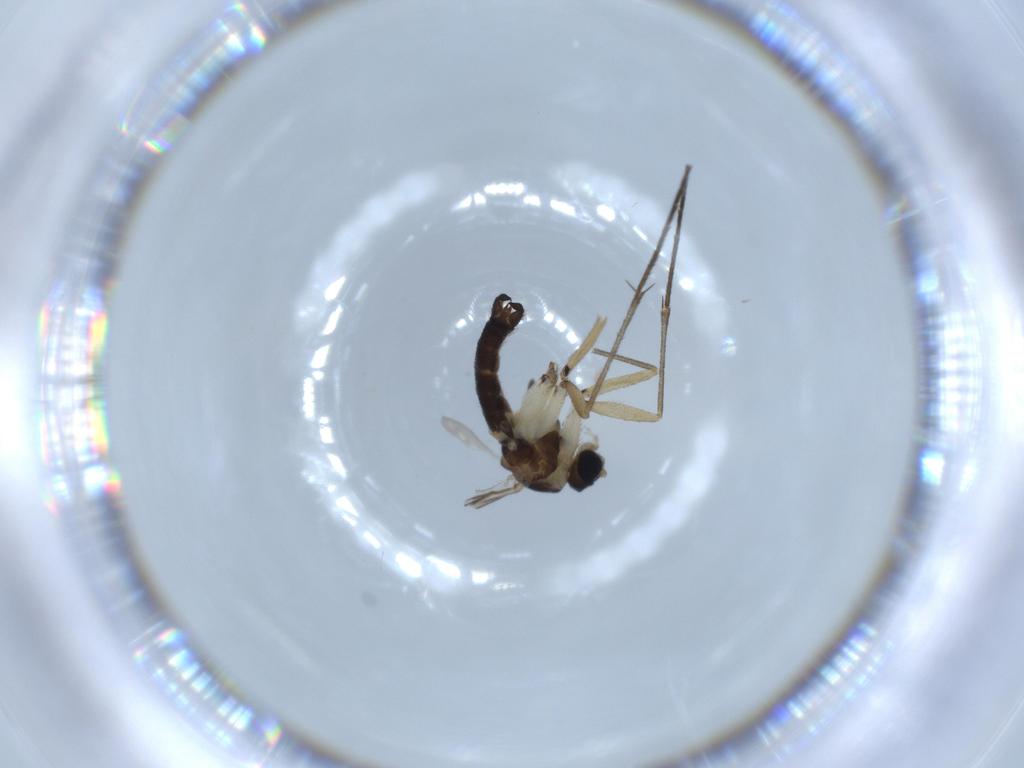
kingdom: Animalia
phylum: Arthropoda
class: Insecta
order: Diptera
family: Sciaridae
